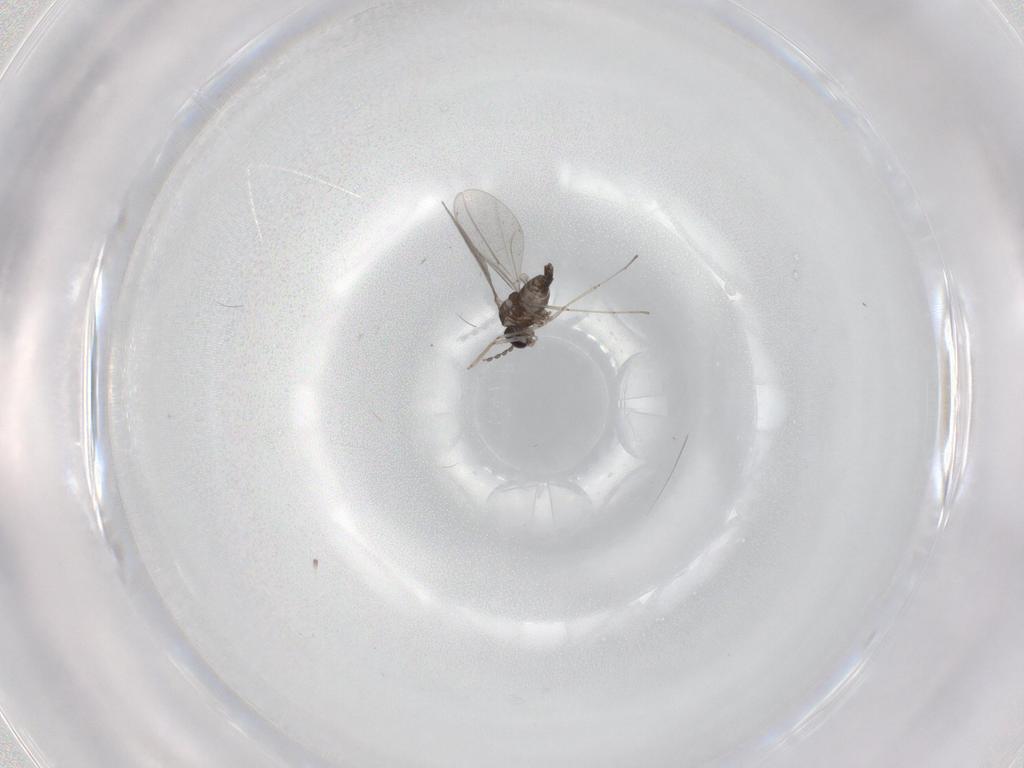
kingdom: Animalia
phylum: Arthropoda
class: Insecta
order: Diptera
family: Cecidomyiidae
